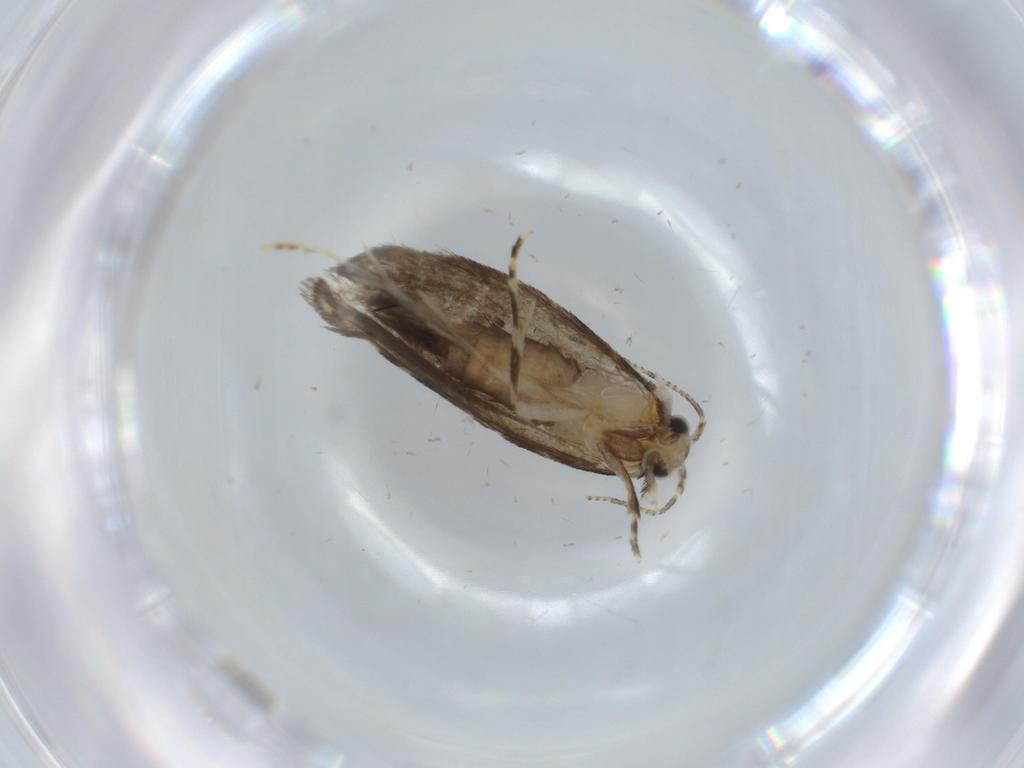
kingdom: Animalia
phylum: Arthropoda
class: Insecta
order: Lepidoptera
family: Tineidae
